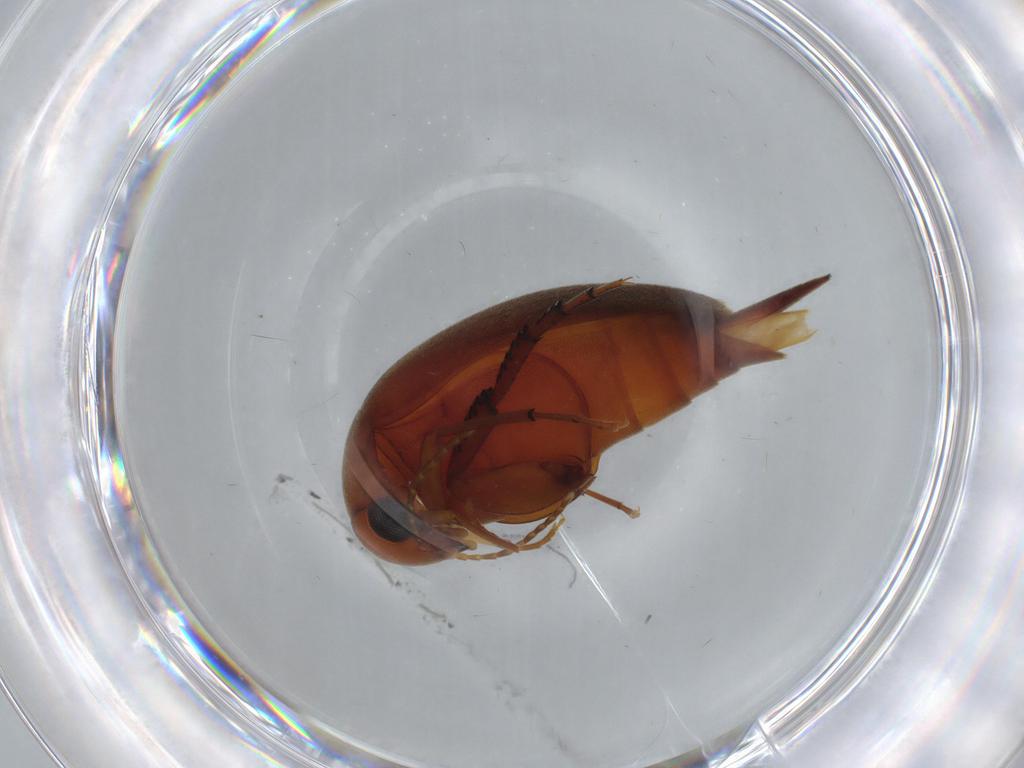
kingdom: Animalia
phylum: Arthropoda
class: Insecta
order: Coleoptera
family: Mordellidae
